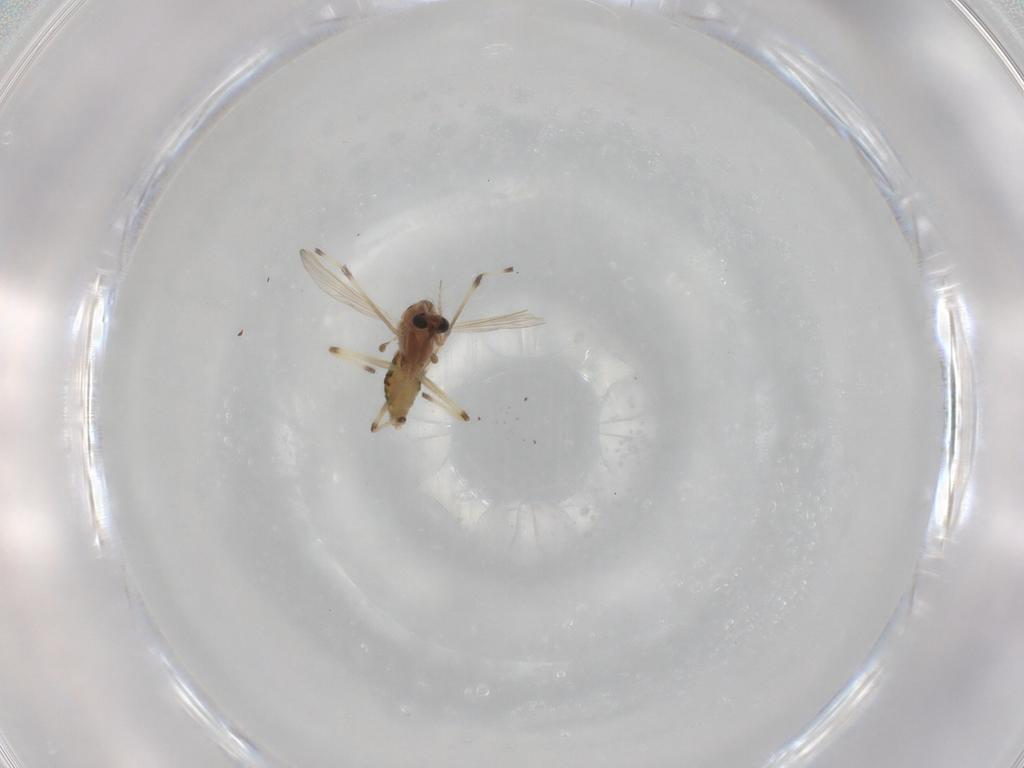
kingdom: Animalia
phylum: Arthropoda
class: Insecta
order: Diptera
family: Chironomidae
